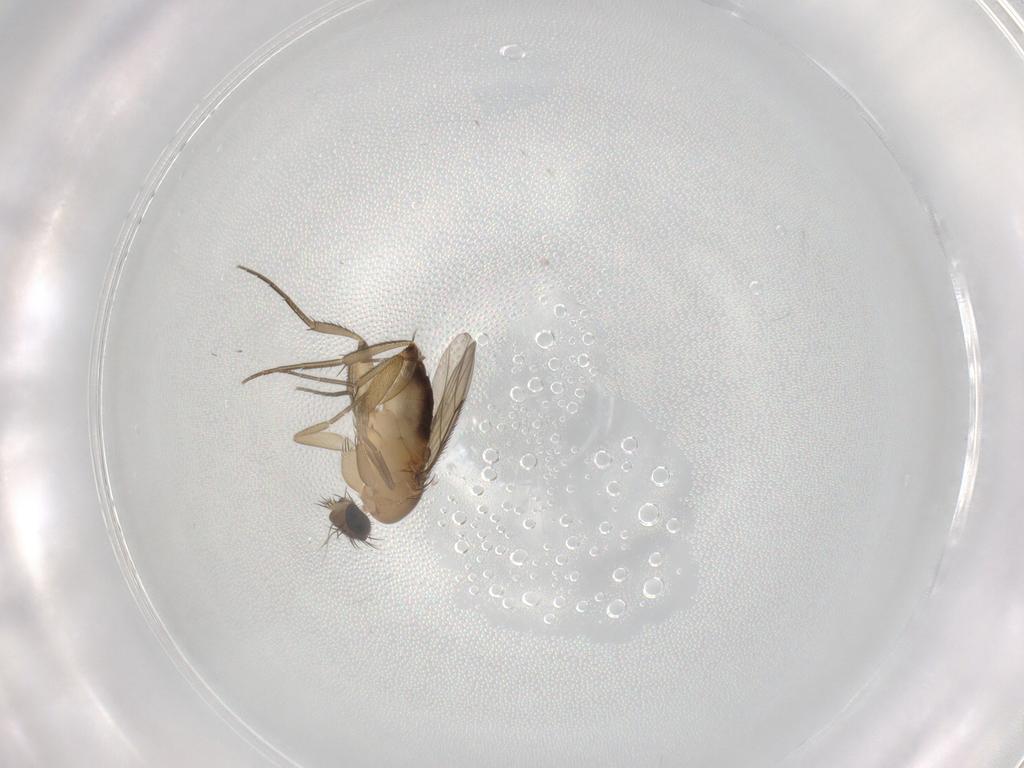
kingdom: Animalia
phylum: Arthropoda
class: Insecta
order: Diptera
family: Phoridae
